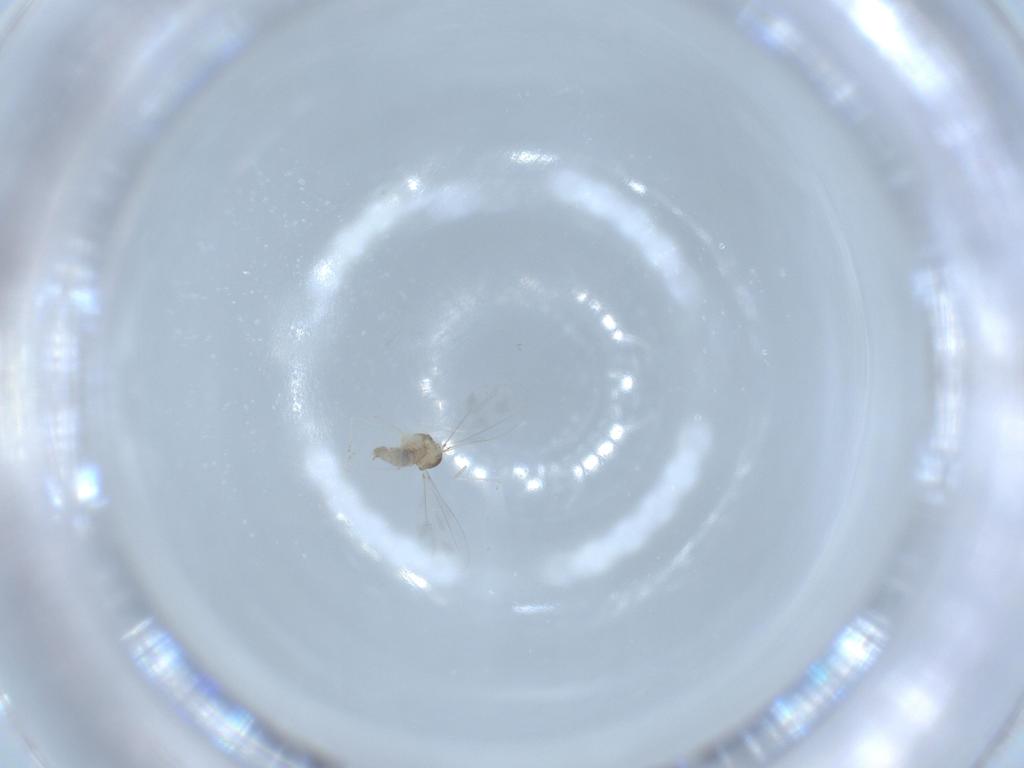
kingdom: Animalia
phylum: Arthropoda
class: Insecta
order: Diptera
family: Cecidomyiidae
